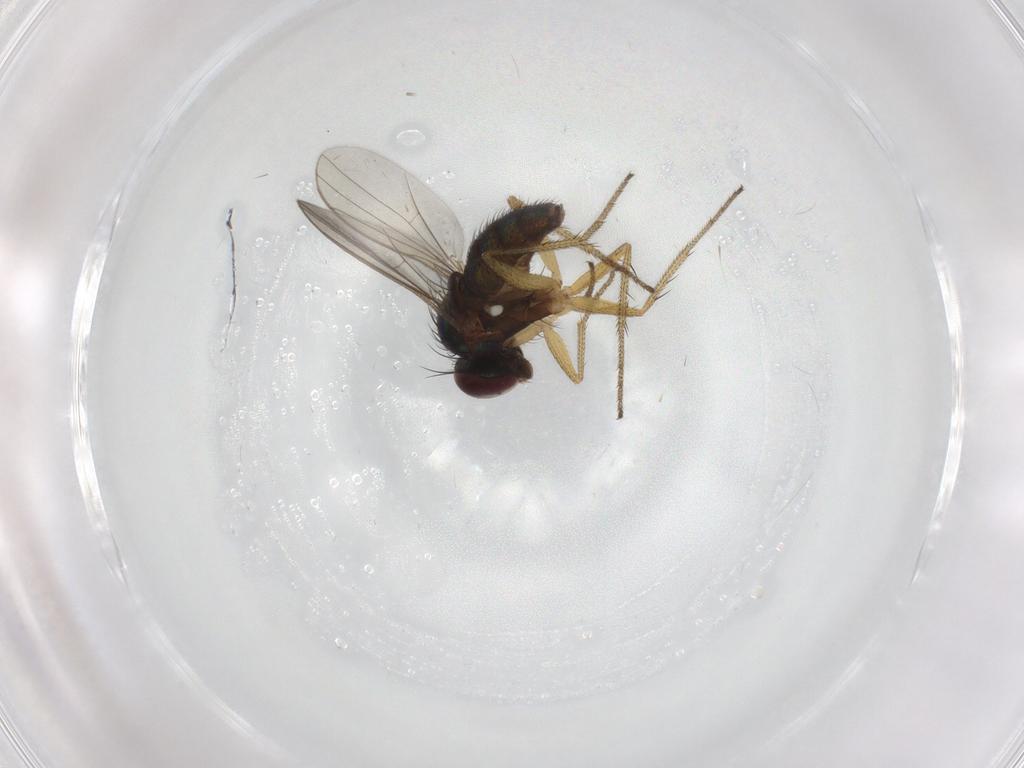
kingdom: Animalia
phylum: Arthropoda
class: Insecta
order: Diptera
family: Dolichopodidae
